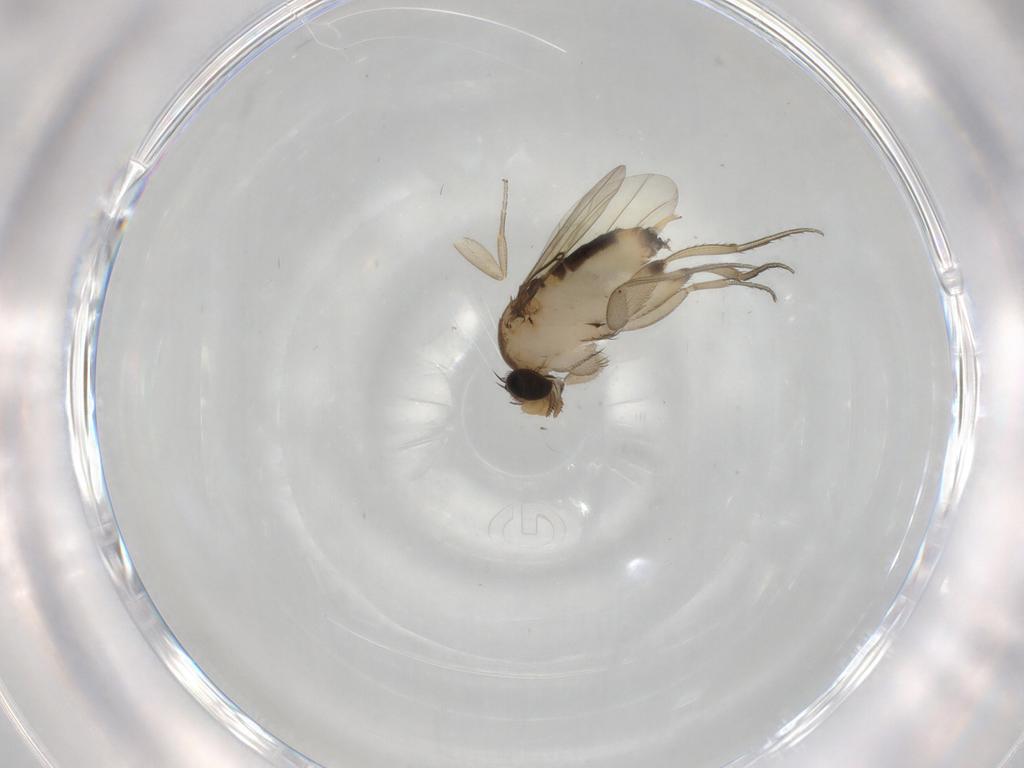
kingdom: Animalia
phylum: Arthropoda
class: Insecta
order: Diptera
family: Phoridae
